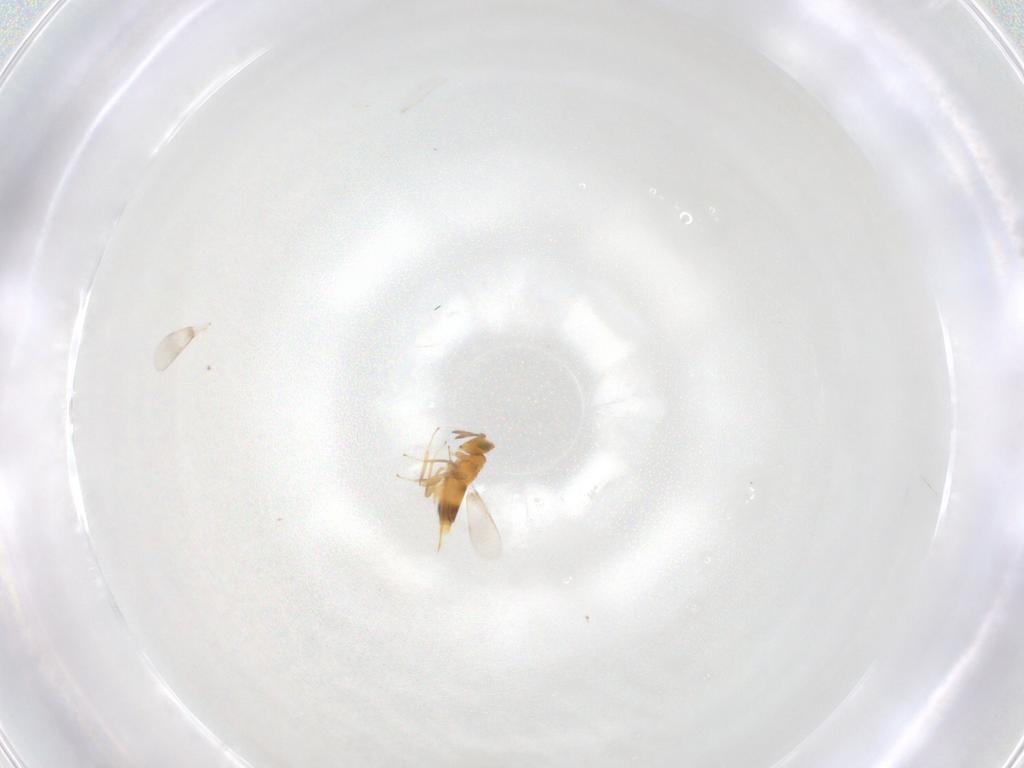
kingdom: Animalia
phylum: Arthropoda
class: Insecta
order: Hymenoptera
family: Aphelinidae
